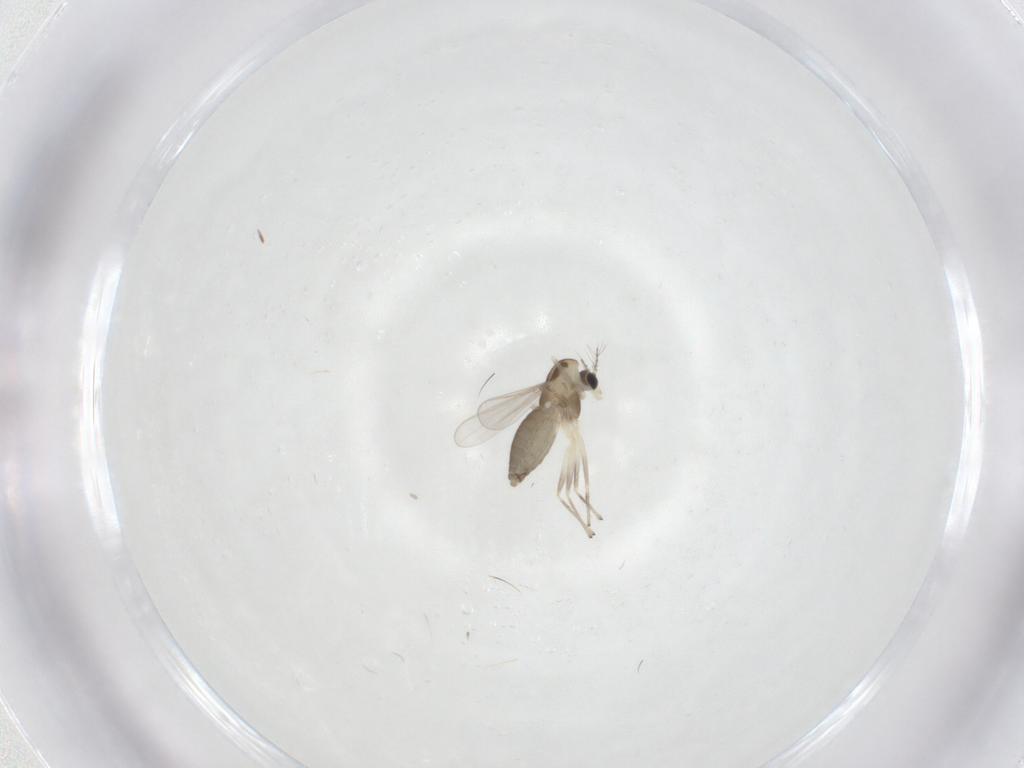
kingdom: Animalia
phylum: Arthropoda
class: Insecta
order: Diptera
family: Chironomidae
